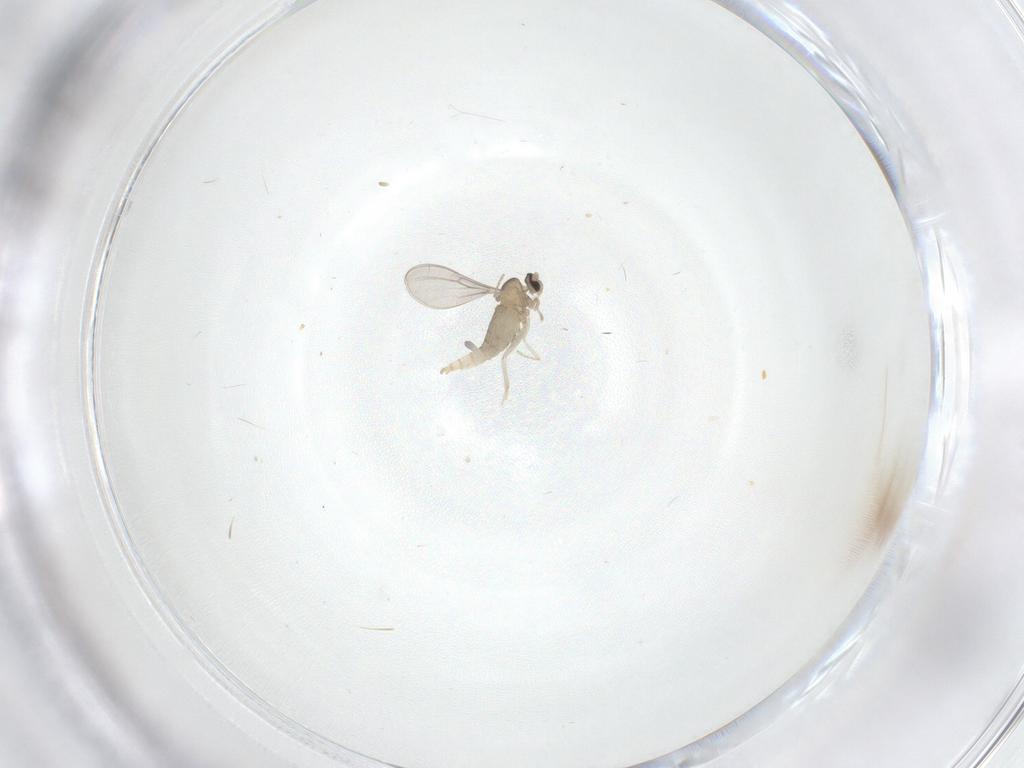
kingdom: Animalia
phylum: Arthropoda
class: Insecta
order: Diptera
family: Cecidomyiidae
